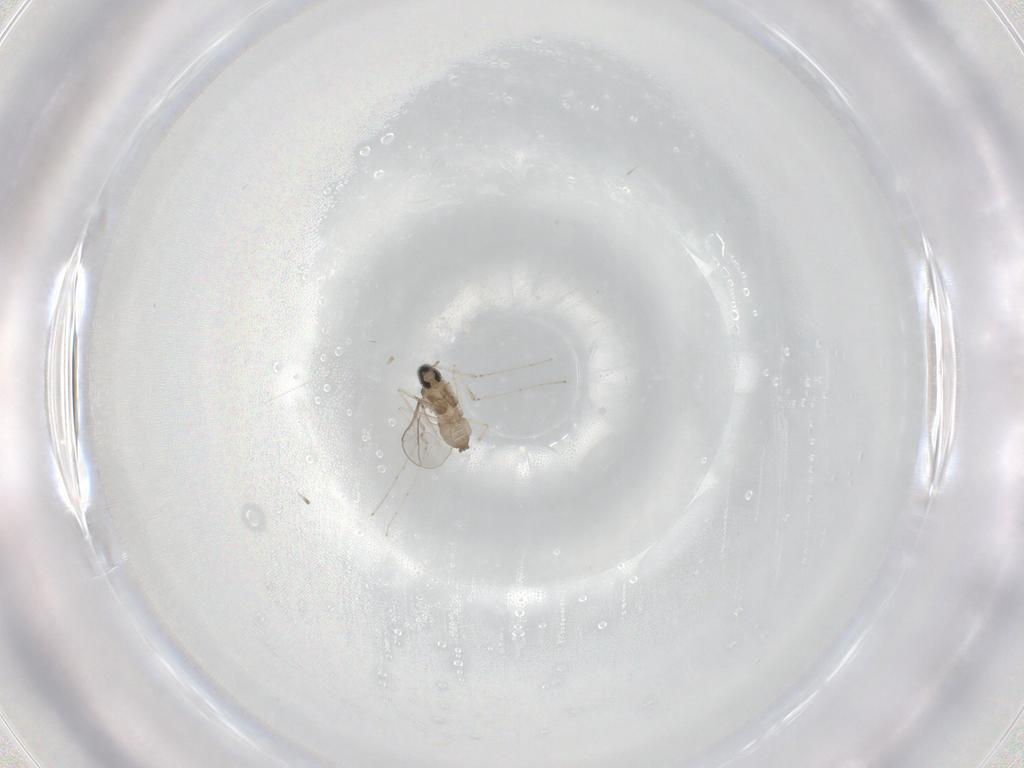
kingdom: Animalia
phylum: Arthropoda
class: Insecta
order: Diptera
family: Cecidomyiidae
